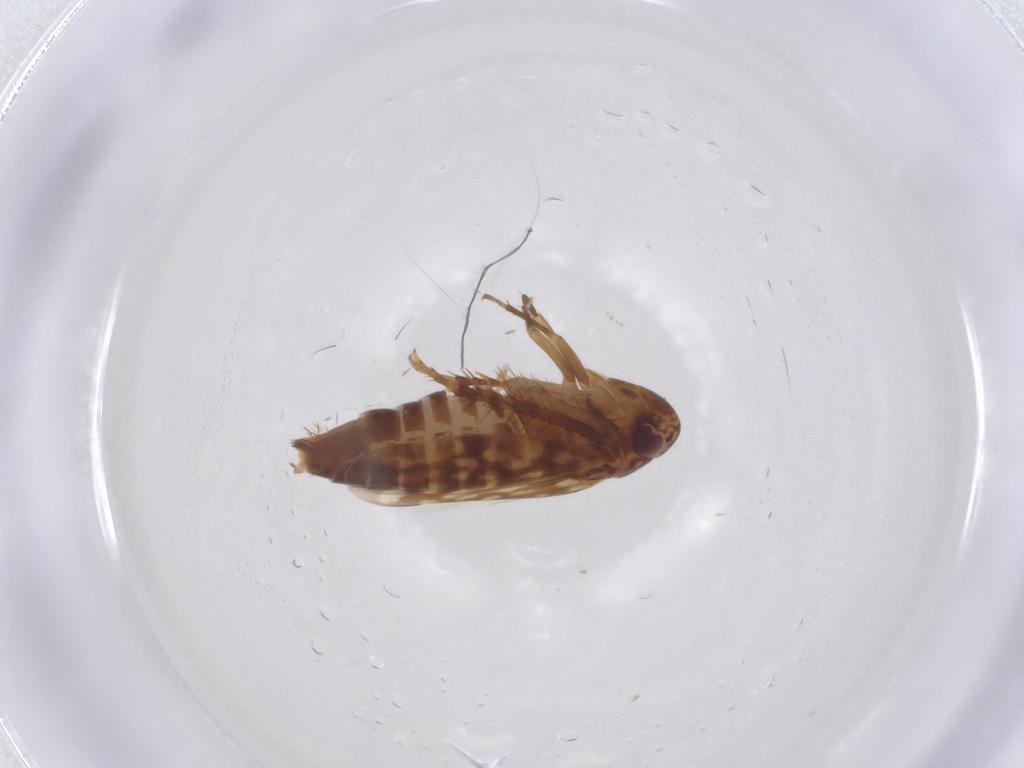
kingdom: Animalia
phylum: Arthropoda
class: Insecta
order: Hemiptera
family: Cicadellidae
